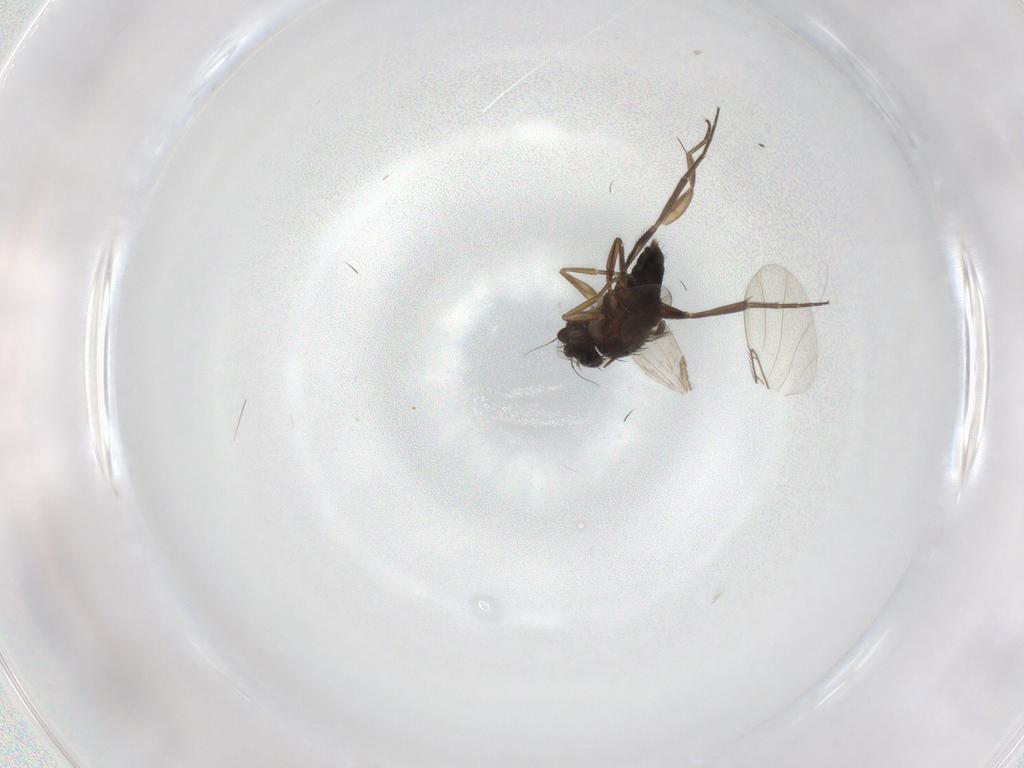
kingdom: Animalia
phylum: Arthropoda
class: Insecta
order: Diptera
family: Phoridae
